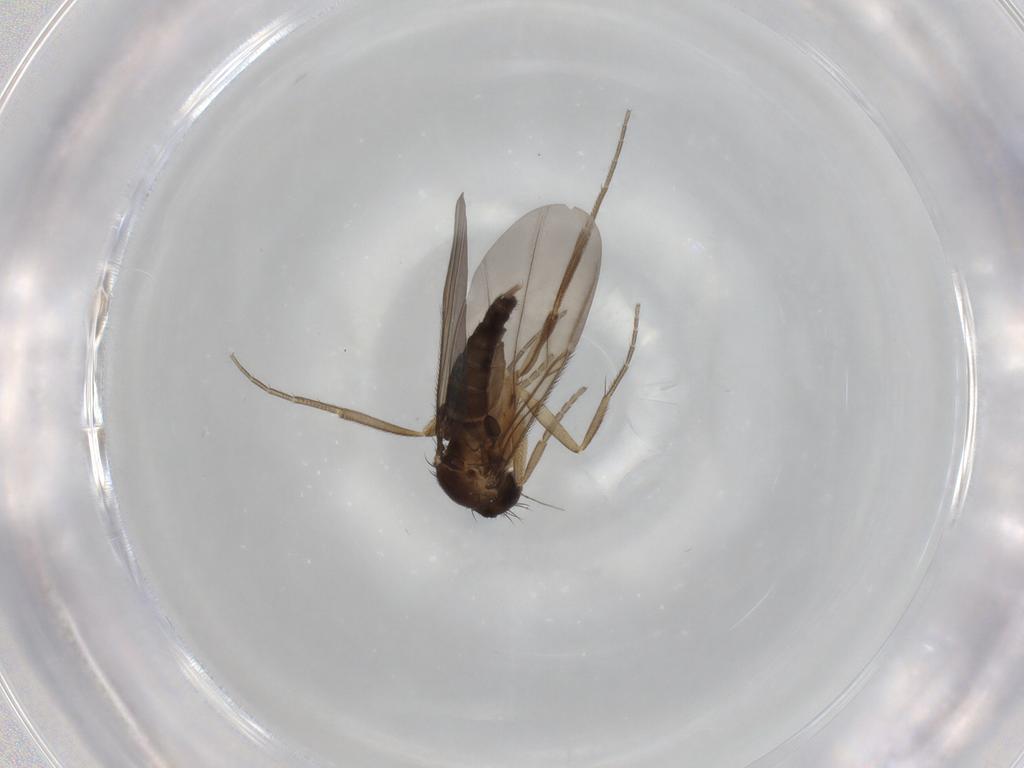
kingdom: Animalia
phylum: Arthropoda
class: Insecta
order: Diptera
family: Phoridae
